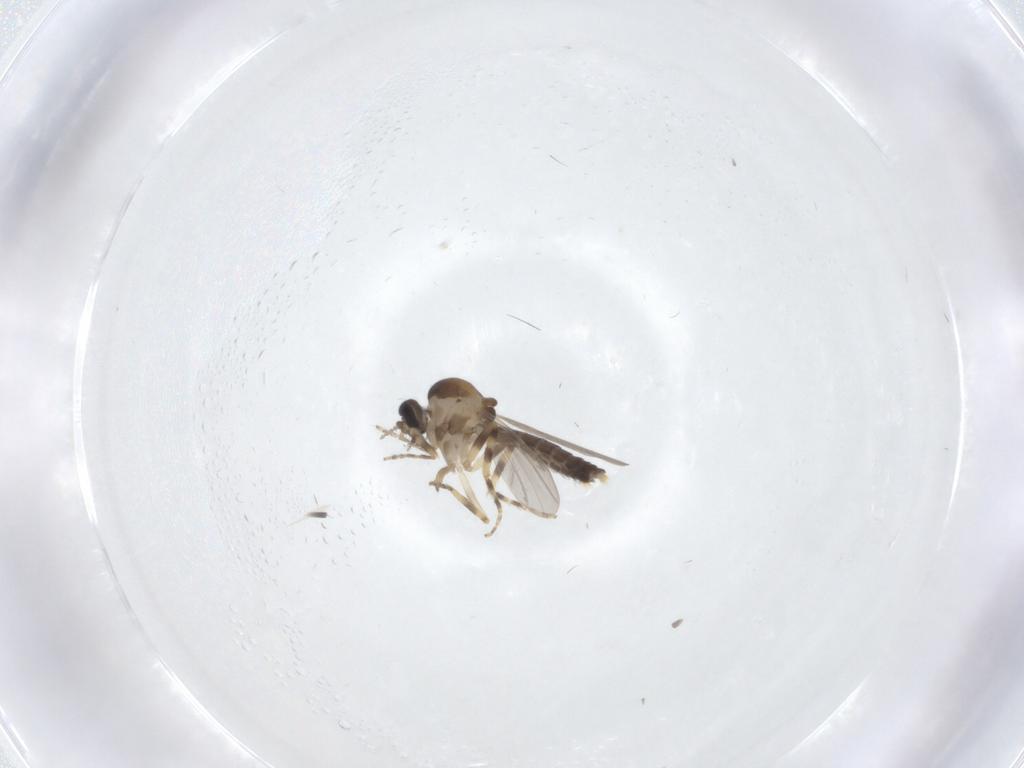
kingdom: Animalia
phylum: Arthropoda
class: Insecta
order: Diptera
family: Ceratopogonidae
